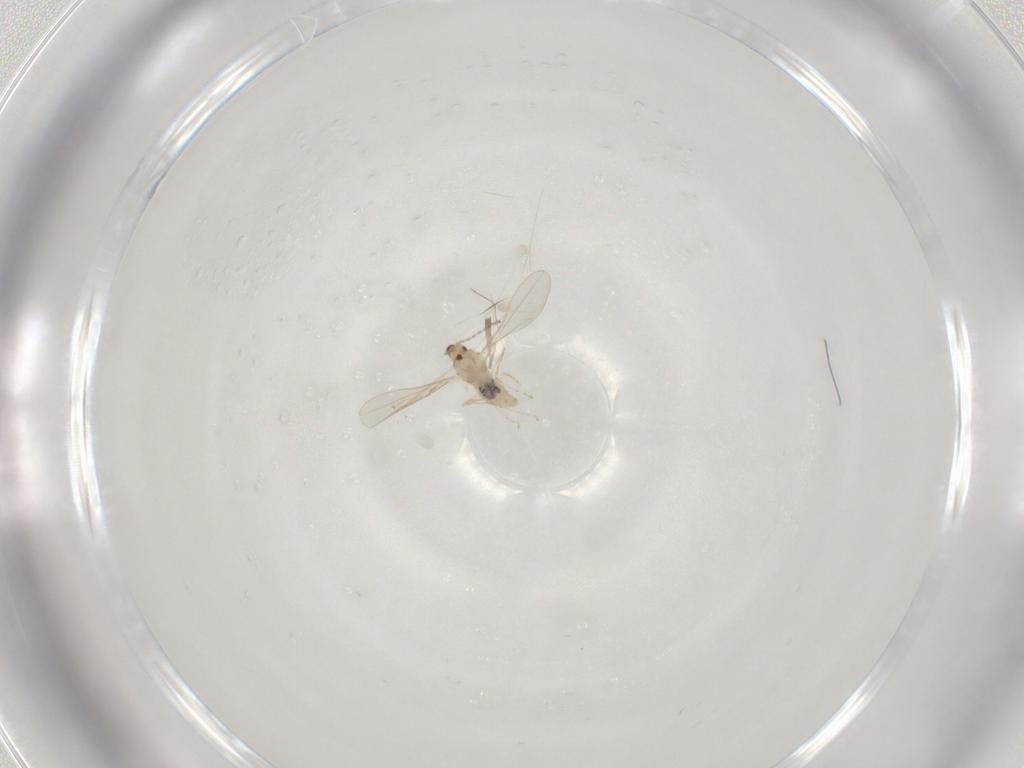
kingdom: Animalia
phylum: Arthropoda
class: Insecta
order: Diptera
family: Cecidomyiidae
